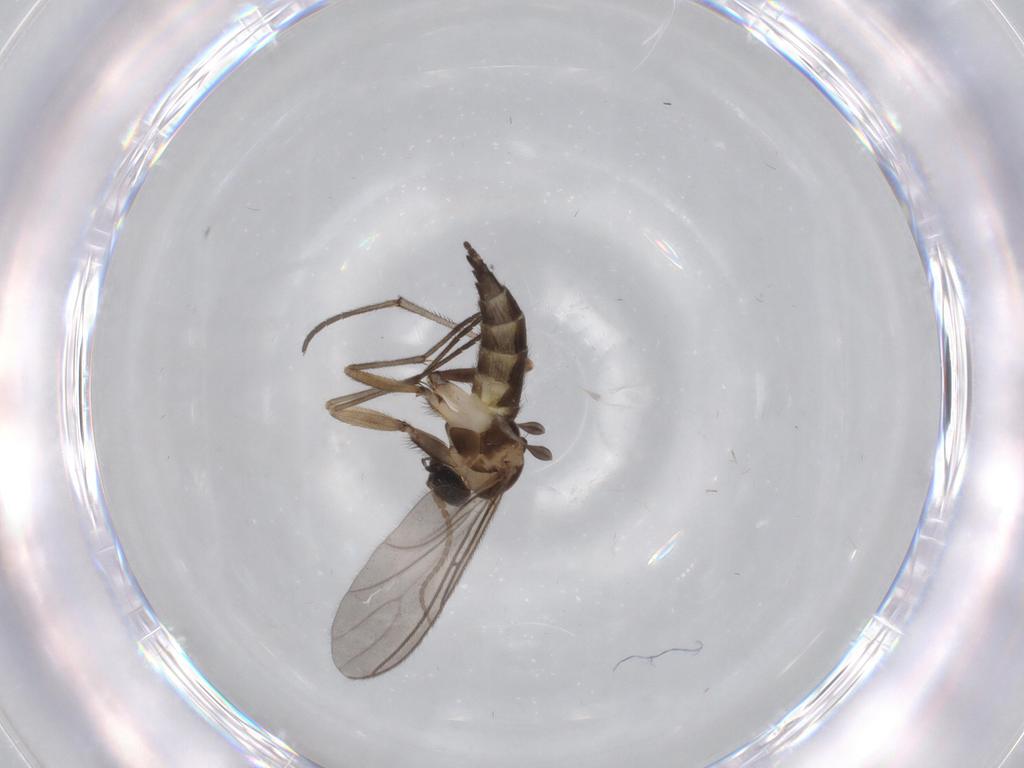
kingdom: Animalia
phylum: Arthropoda
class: Insecta
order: Diptera
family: Sciaridae
